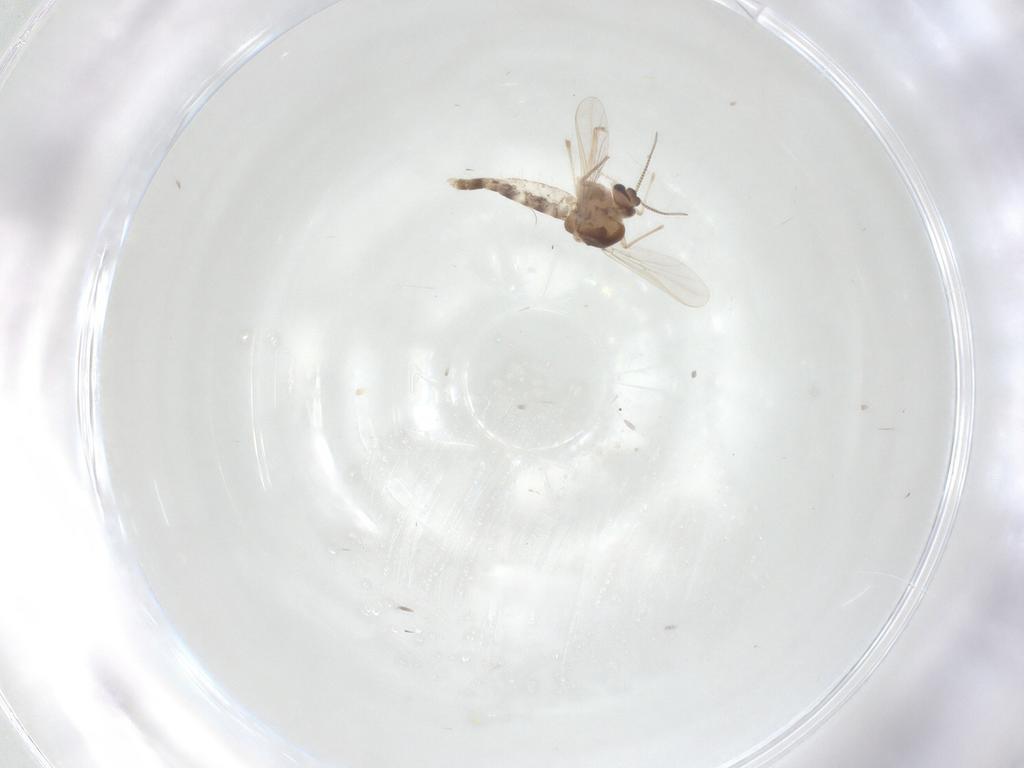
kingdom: Animalia
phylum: Arthropoda
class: Insecta
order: Diptera
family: Chironomidae
